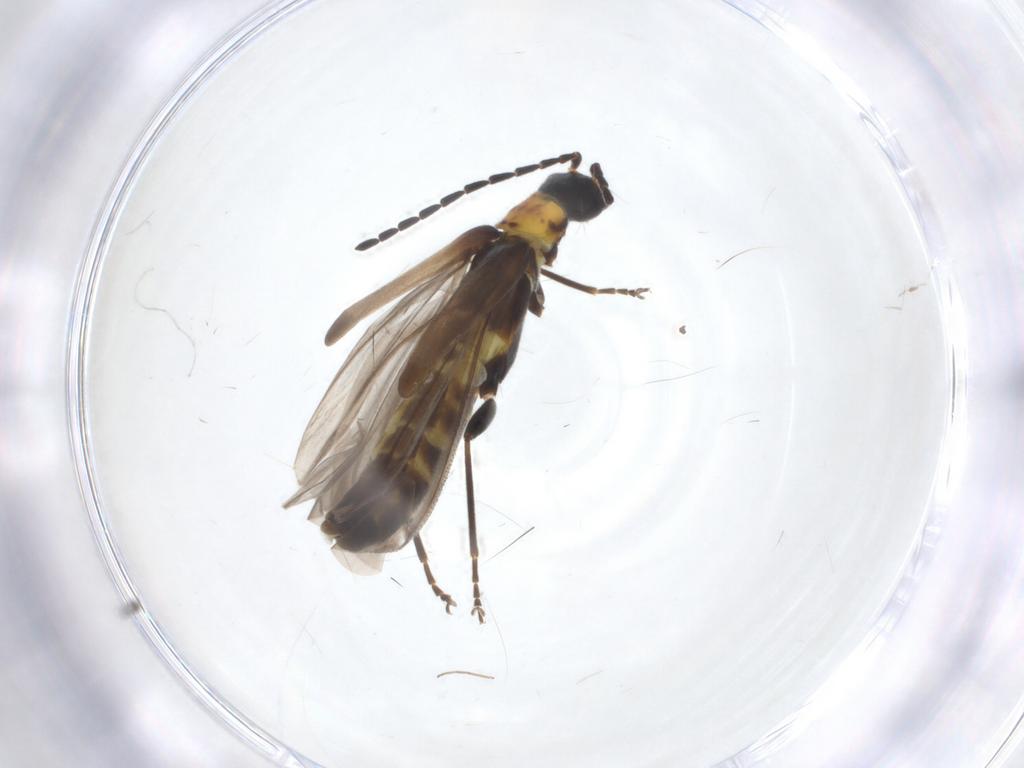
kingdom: Animalia
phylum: Arthropoda
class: Insecta
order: Coleoptera
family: Cantharidae
